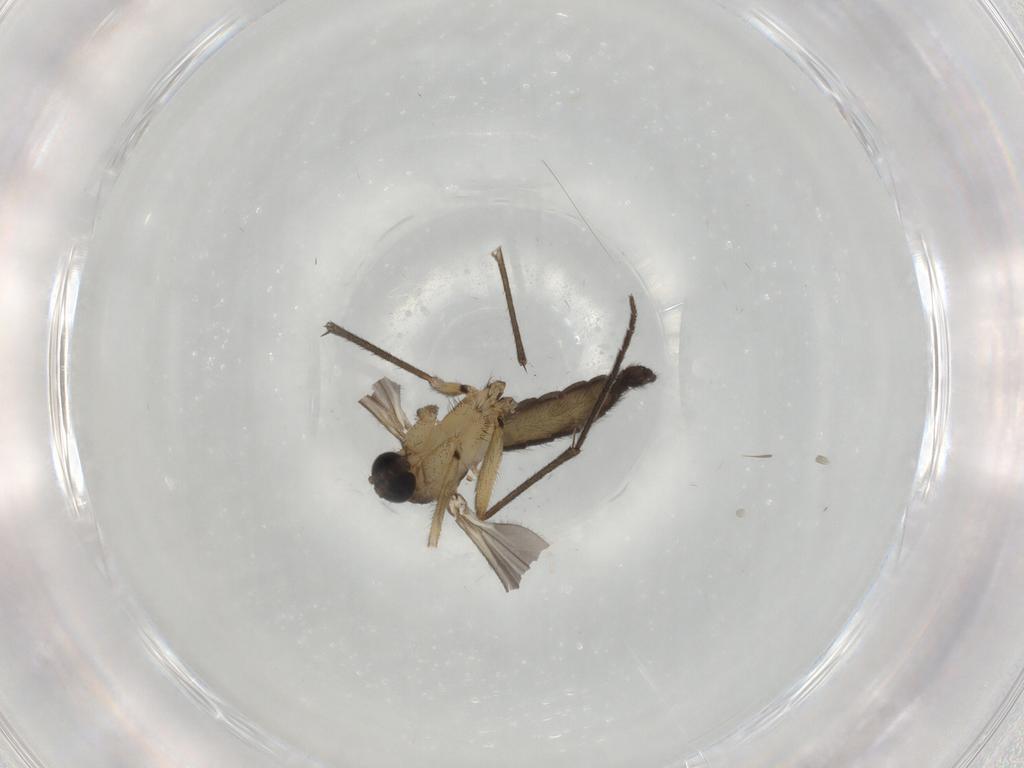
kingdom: Animalia
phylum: Arthropoda
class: Insecta
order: Diptera
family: Sciaridae
